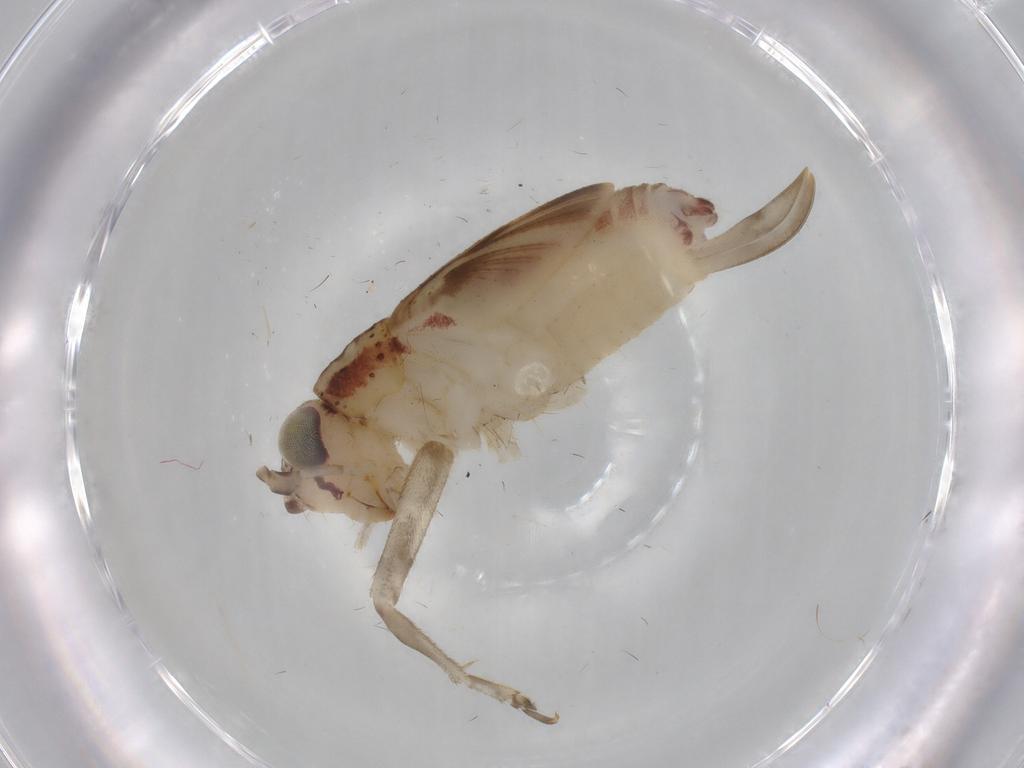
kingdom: Animalia
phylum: Arthropoda
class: Insecta
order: Orthoptera
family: Trigonidiidae
